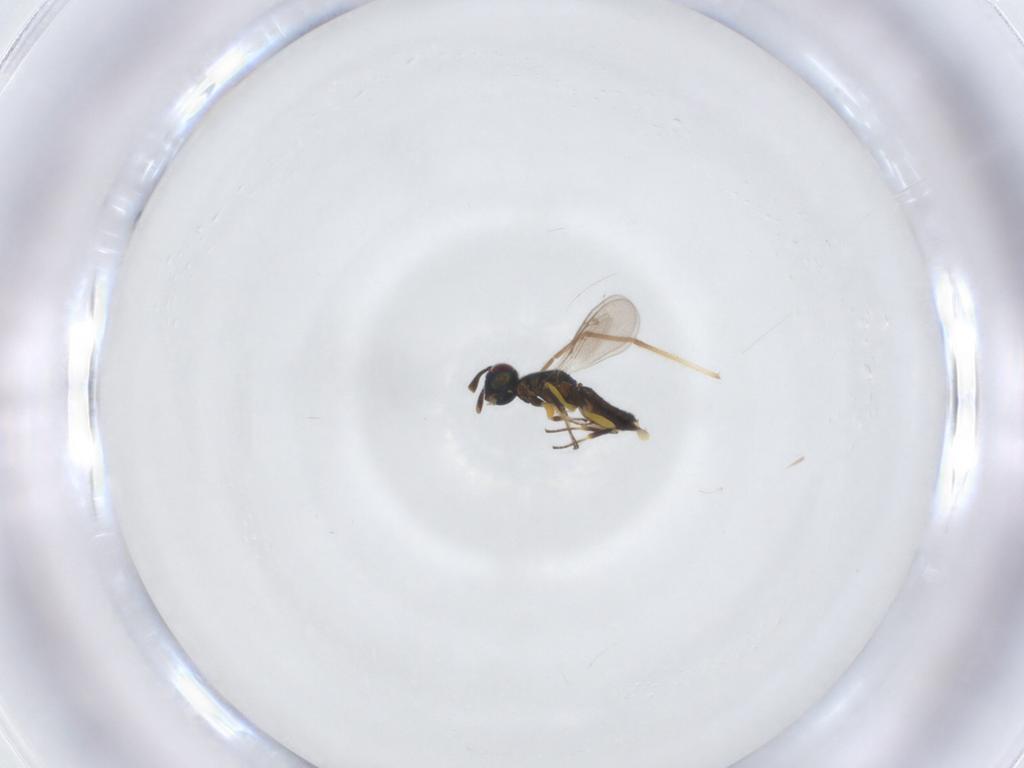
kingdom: Animalia
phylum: Arthropoda
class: Insecta
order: Hymenoptera
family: Eupelmidae
